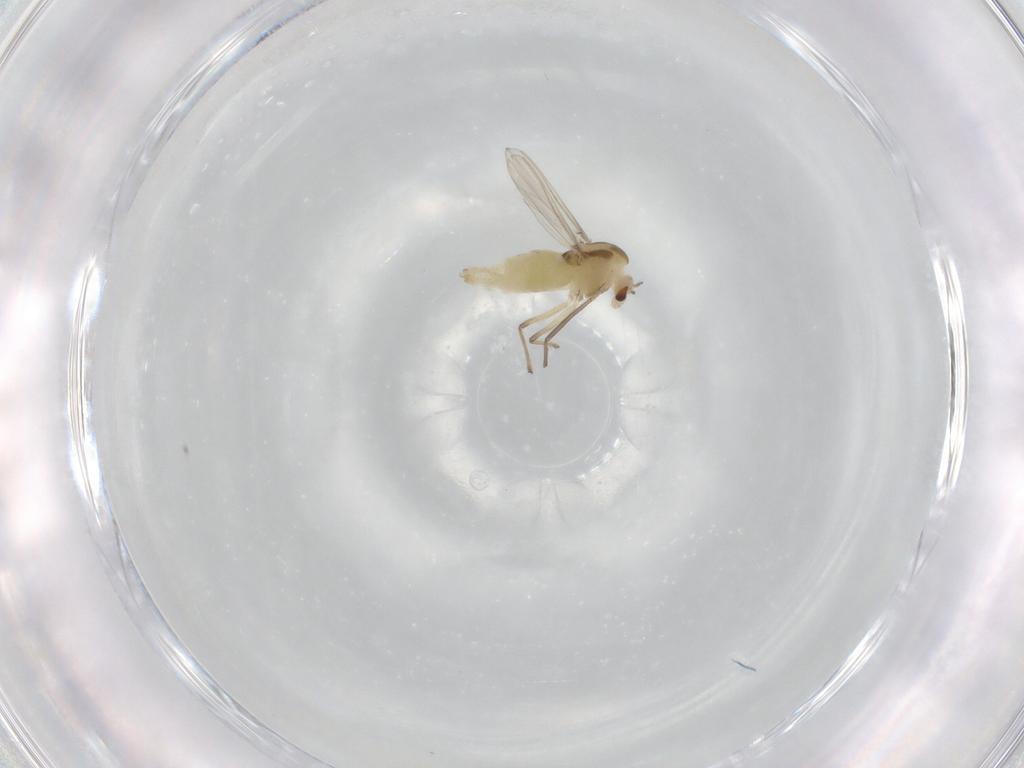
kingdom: Animalia
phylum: Arthropoda
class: Insecta
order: Diptera
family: Chironomidae
